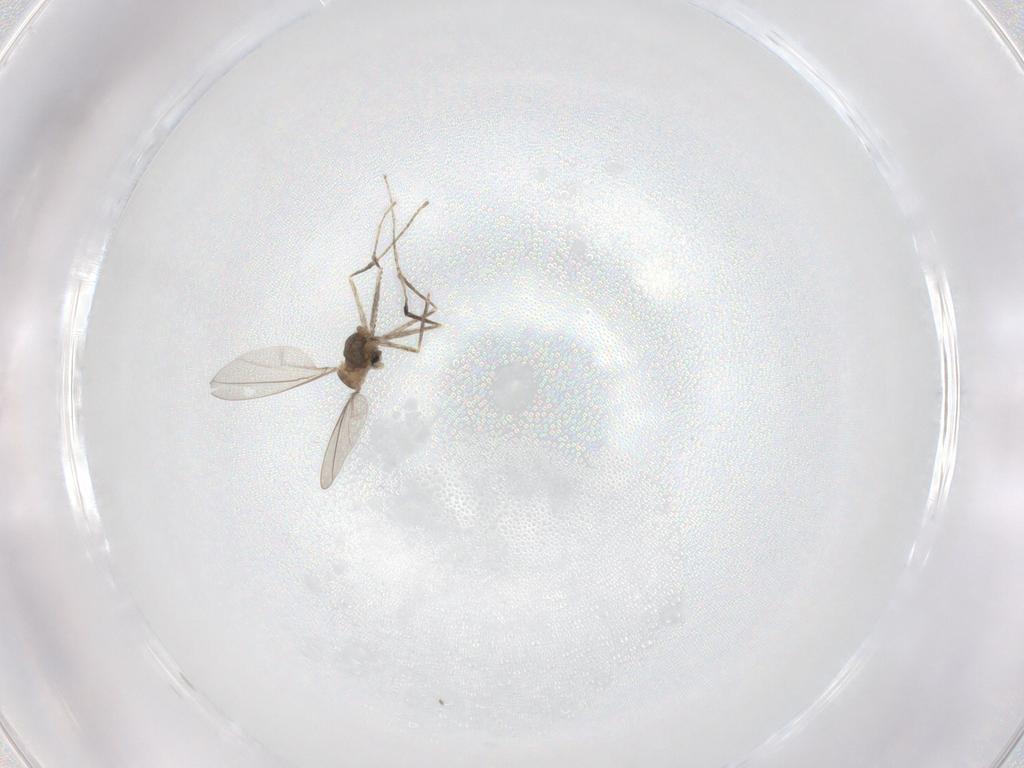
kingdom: Animalia
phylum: Arthropoda
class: Insecta
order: Diptera
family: Cecidomyiidae
